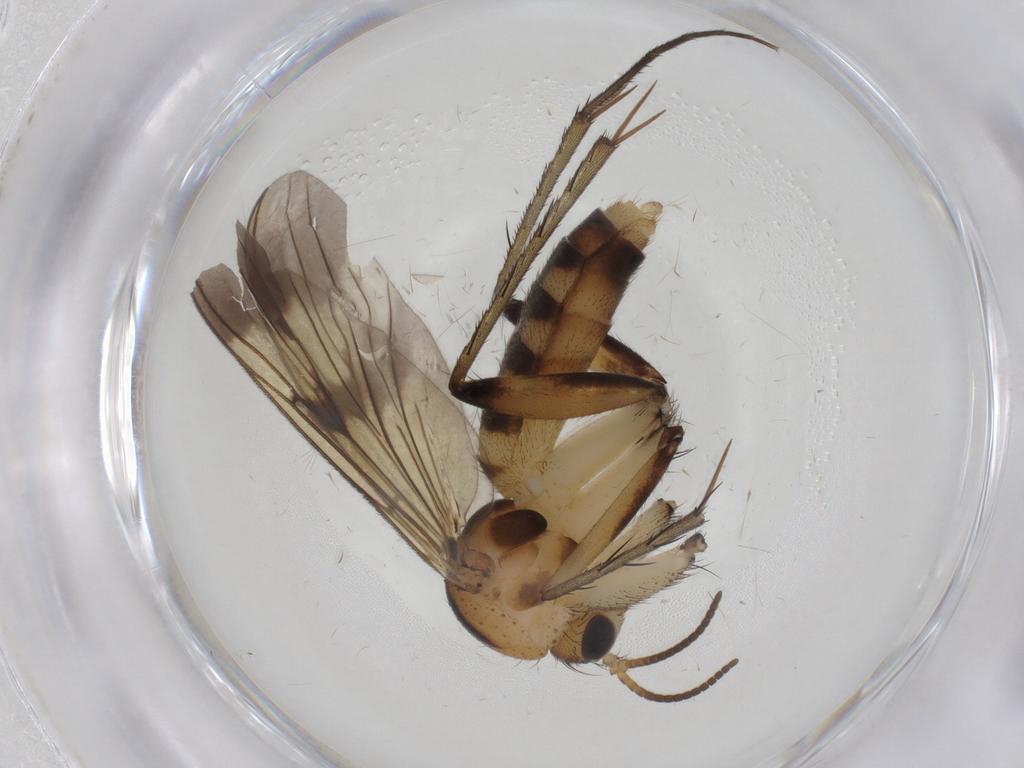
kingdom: Animalia
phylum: Arthropoda
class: Insecta
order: Diptera
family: Mycetophilidae
